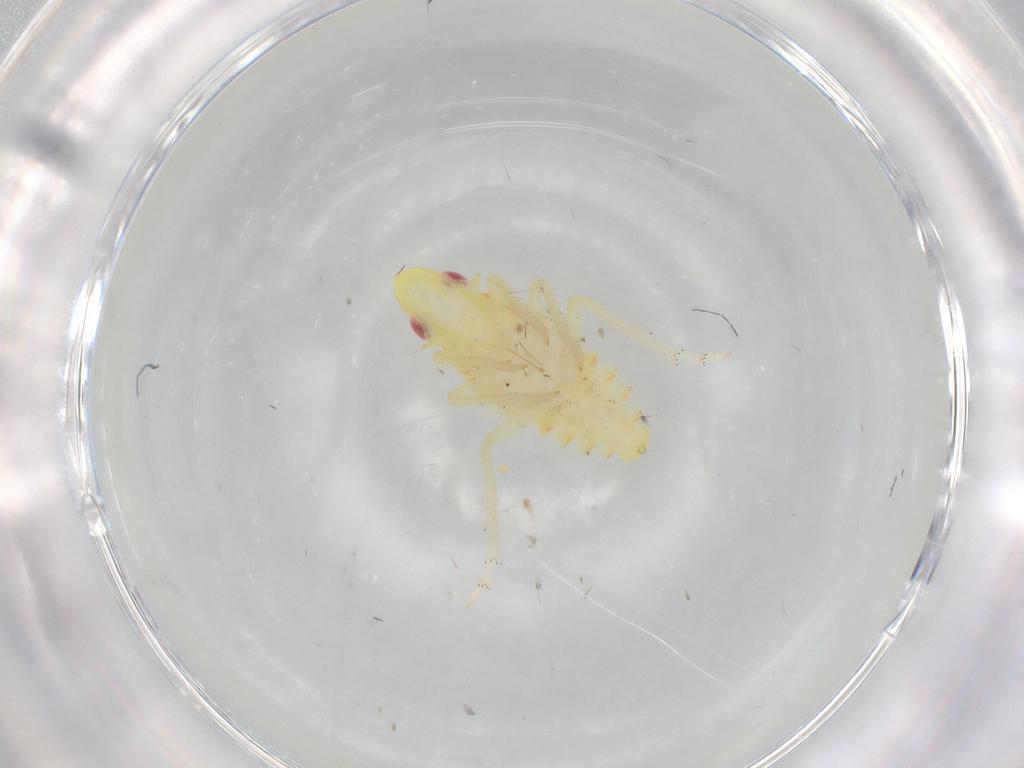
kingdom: Animalia
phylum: Arthropoda
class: Insecta
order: Hemiptera
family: Aleyrodidae
